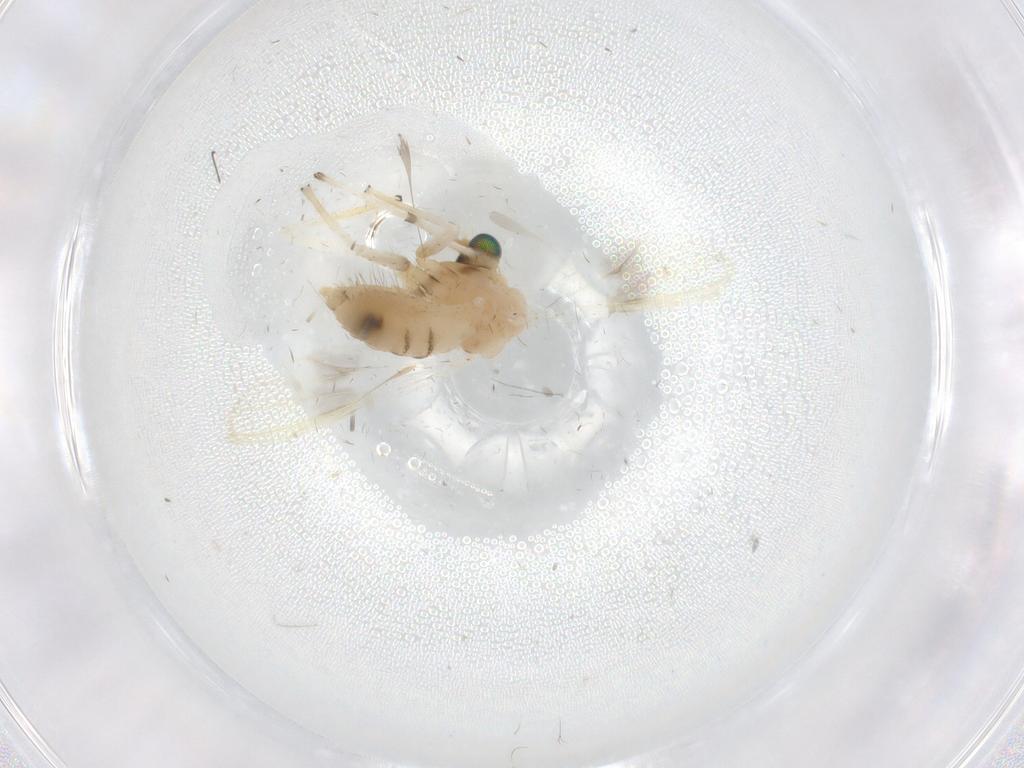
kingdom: Animalia
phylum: Arthropoda
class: Insecta
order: Diptera
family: Chironomidae
